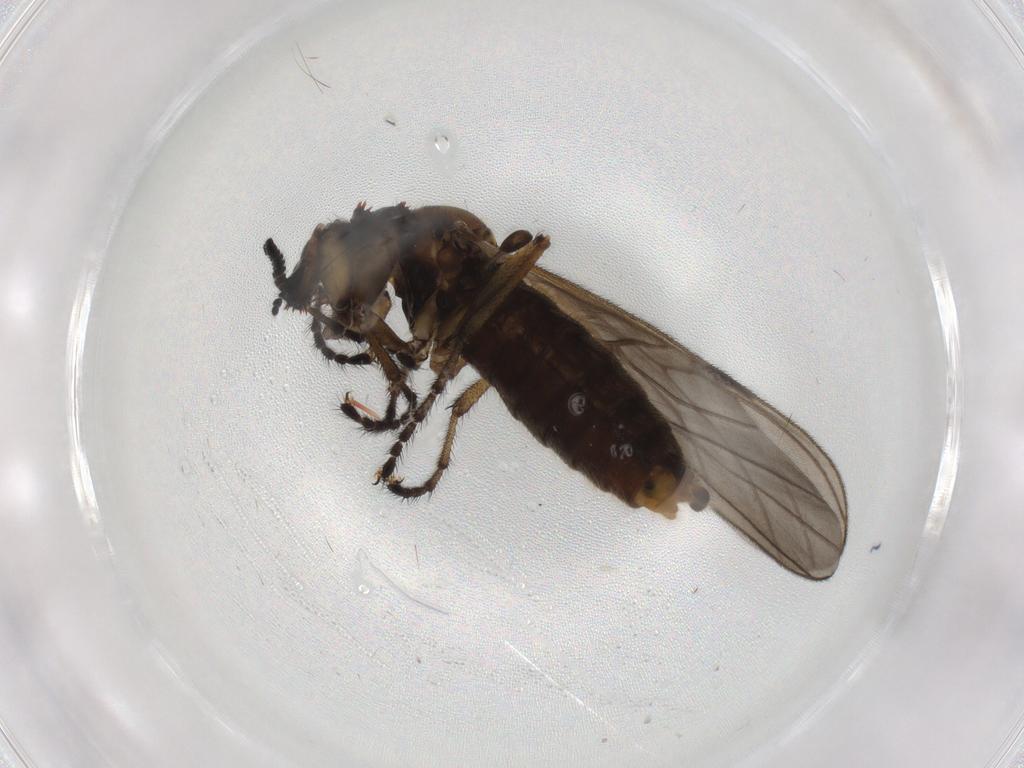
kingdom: Animalia
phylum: Arthropoda
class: Insecta
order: Diptera
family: Bibionidae
